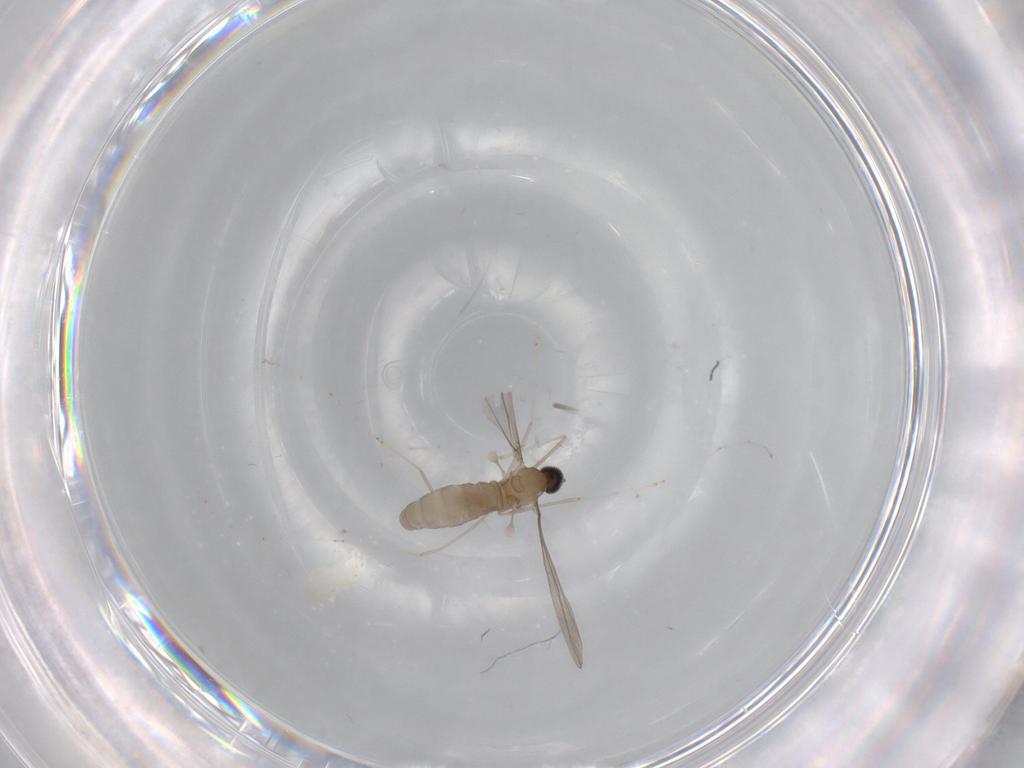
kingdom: Animalia
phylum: Arthropoda
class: Insecta
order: Diptera
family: Cecidomyiidae
